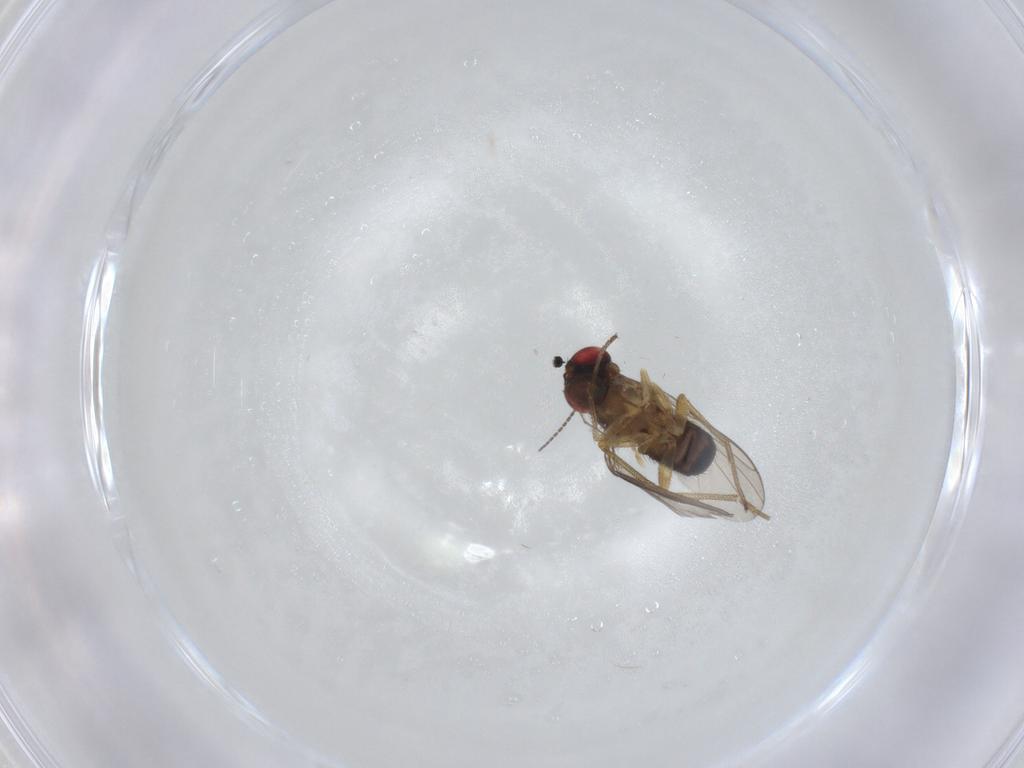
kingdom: Animalia
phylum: Arthropoda
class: Insecta
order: Diptera
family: Dolichopodidae
